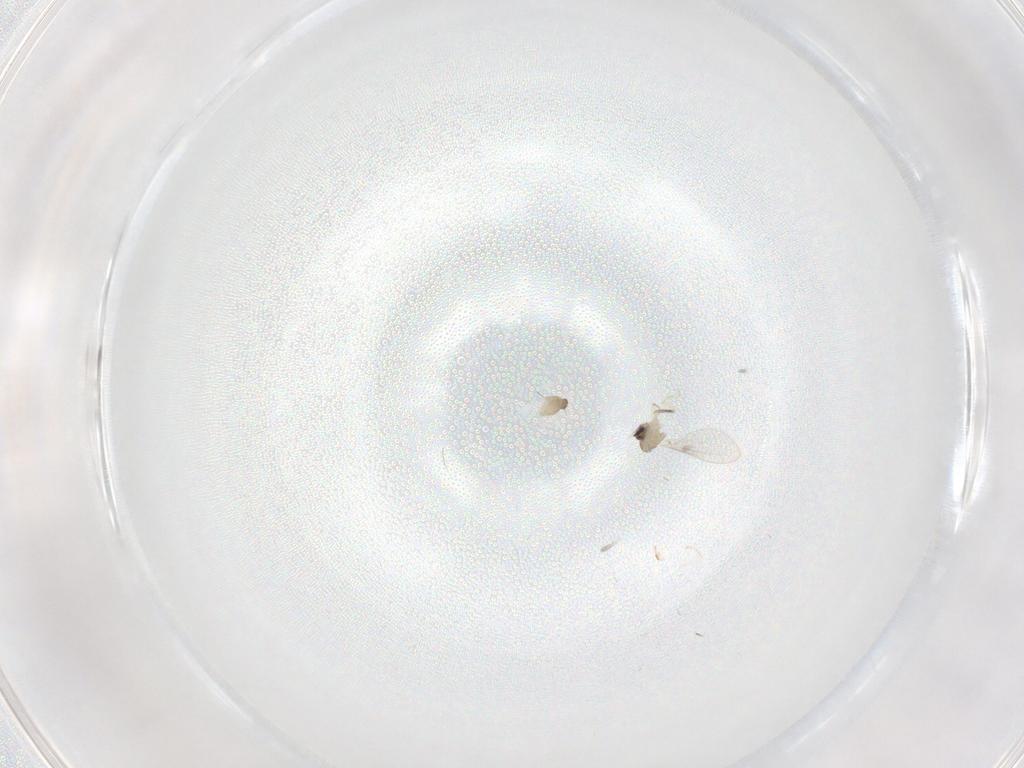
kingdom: Animalia
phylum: Arthropoda
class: Insecta
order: Diptera
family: Cecidomyiidae
